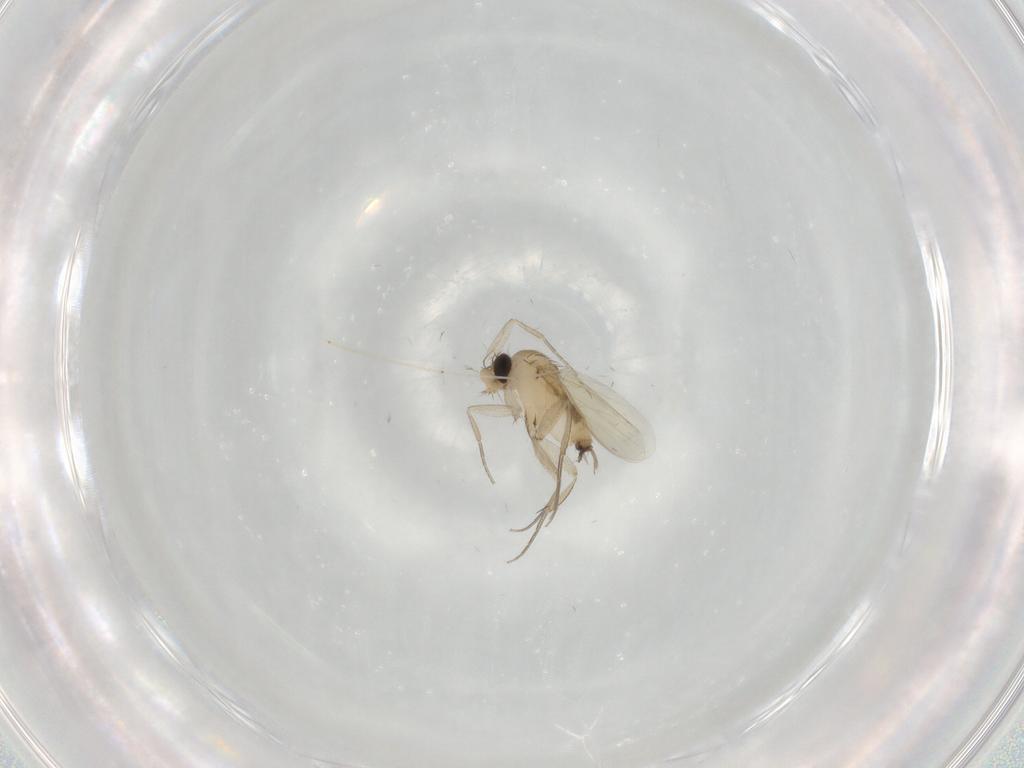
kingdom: Animalia
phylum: Arthropoda
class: Insecta
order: Diptera
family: Phoridae
